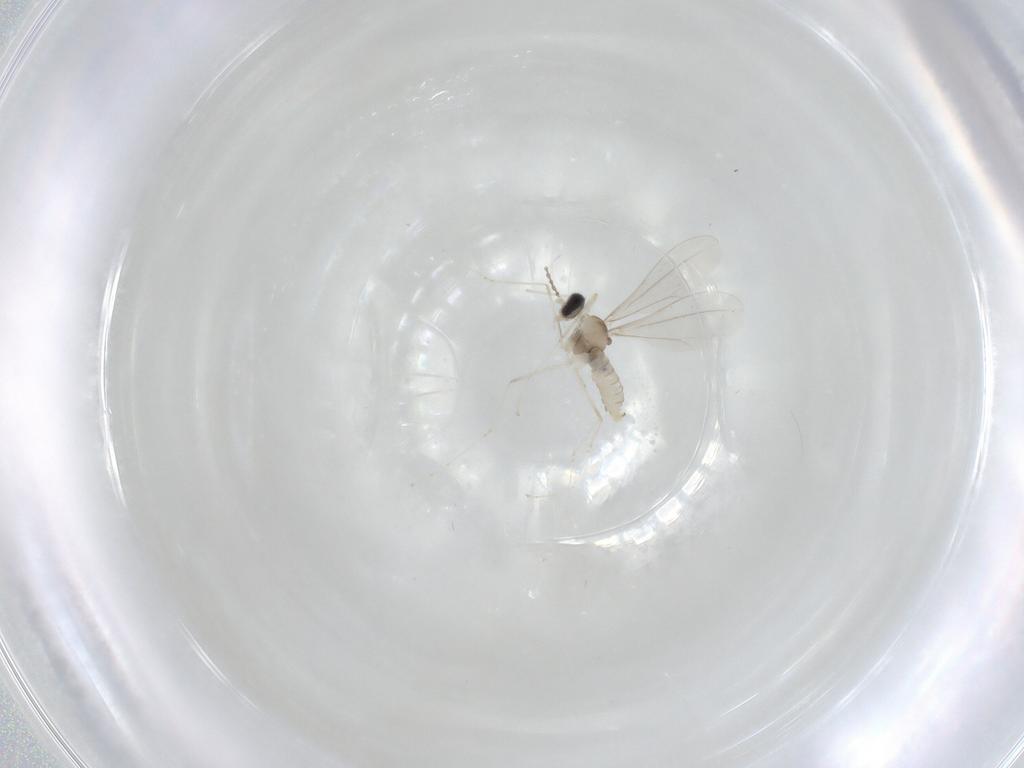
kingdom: Animalia
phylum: Arthropoda
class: Insecta
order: Diptera
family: Cecidomyiidae
